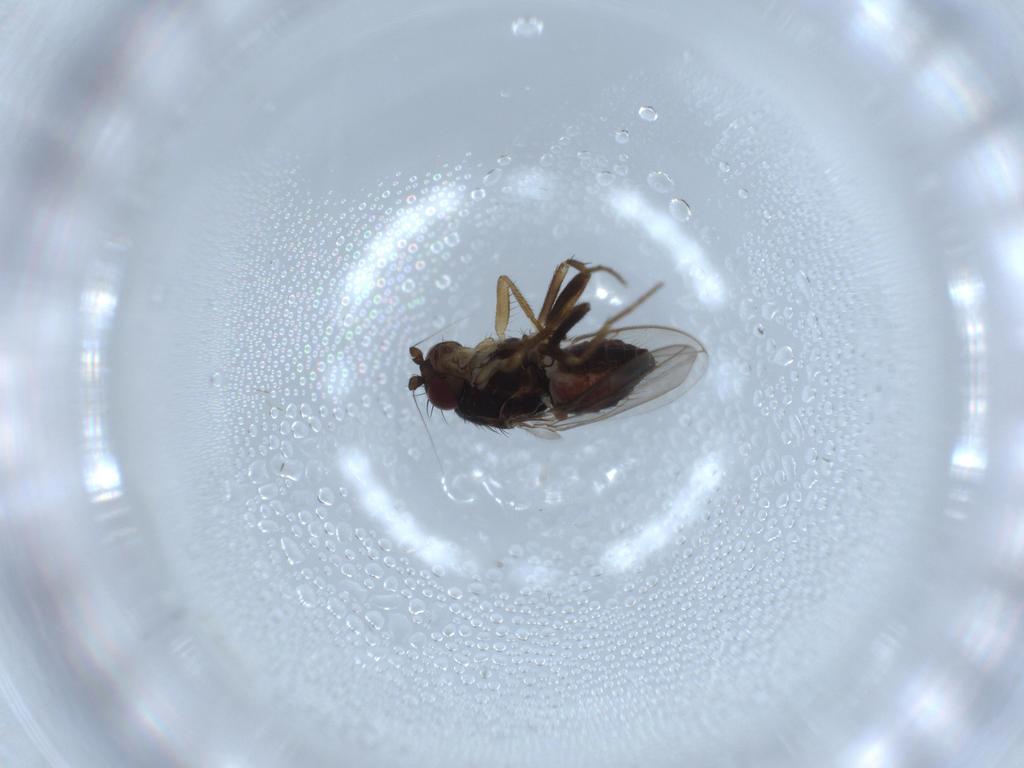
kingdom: Animalia
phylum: Arthropoda
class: Insecta
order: Diptera
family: Sphaeroceridae
